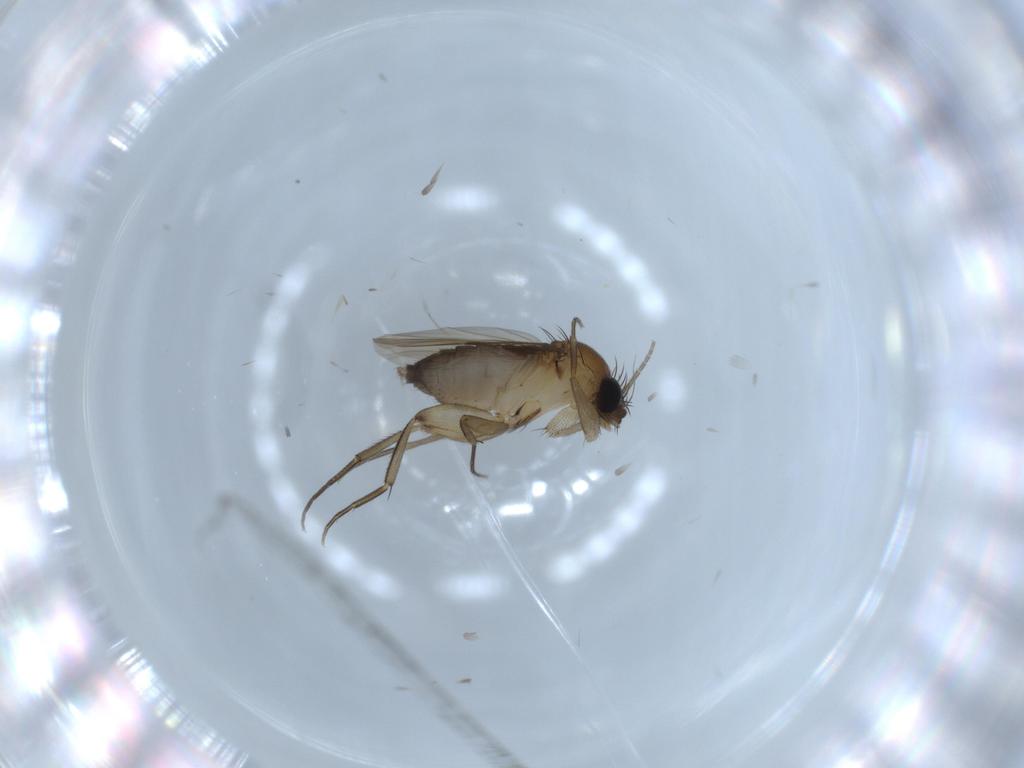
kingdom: Animalia
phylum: Arthropoda
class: Insecta
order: Diptera
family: Phoridae
